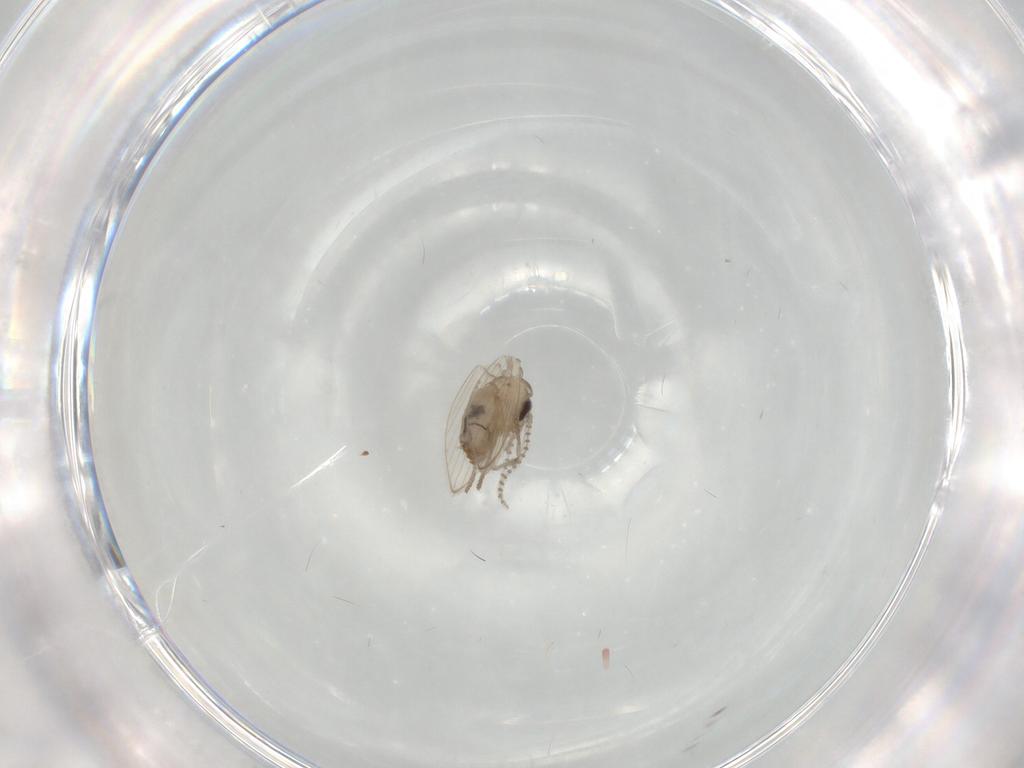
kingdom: Animalia
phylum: Arthropoda
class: Insecta
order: Diptera
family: Psychodidae
